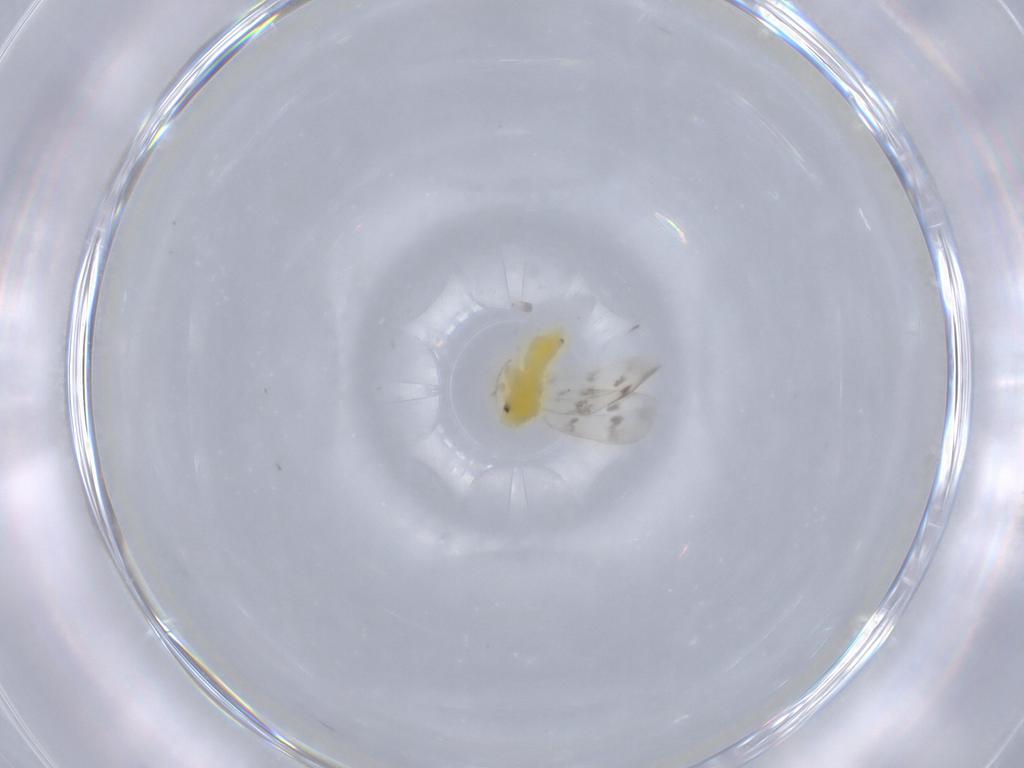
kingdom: Animalia
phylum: Arthropoda
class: Insecta
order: Hemiptera
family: Aleyrodidae
